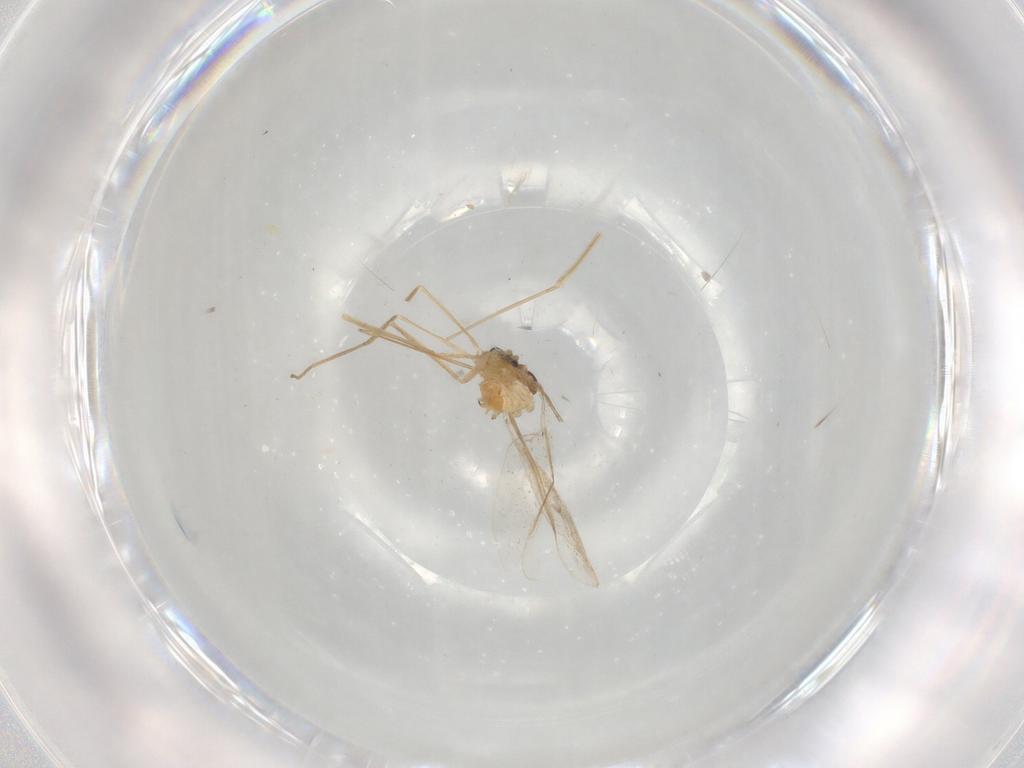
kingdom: Animalia
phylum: Arthropoda
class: Insecta
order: Diptera
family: Cecidomyiidae
